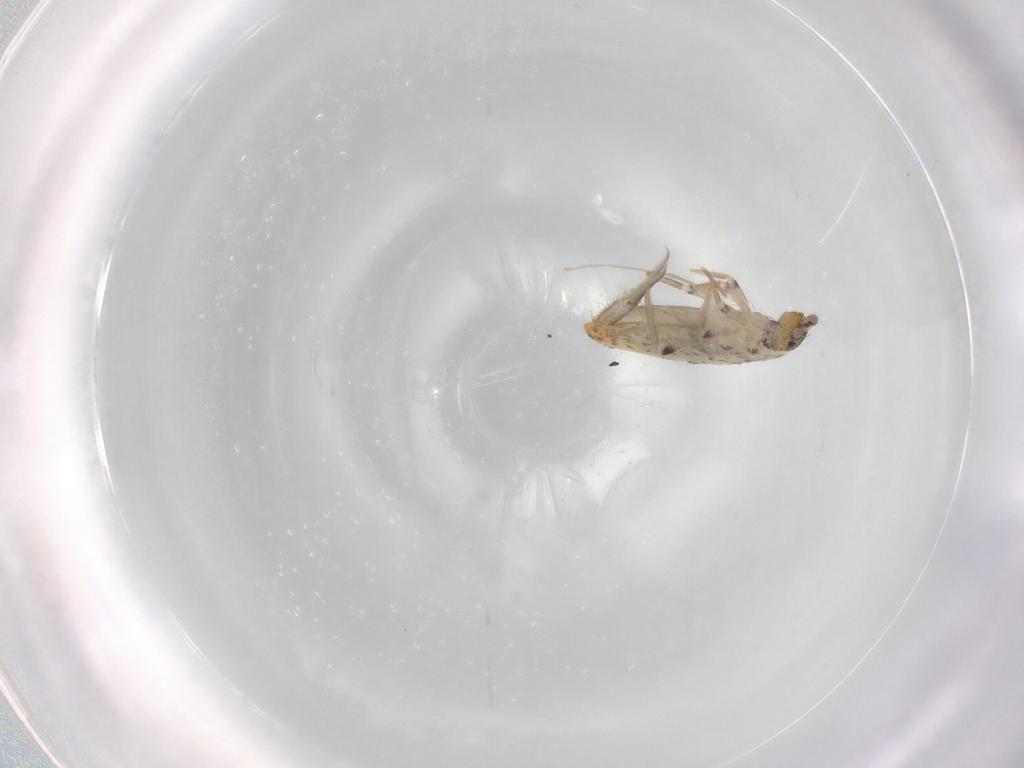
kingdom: Animalia
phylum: Arthropoda
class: Collembola
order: Entomobryomorpha
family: Entomobryidae
